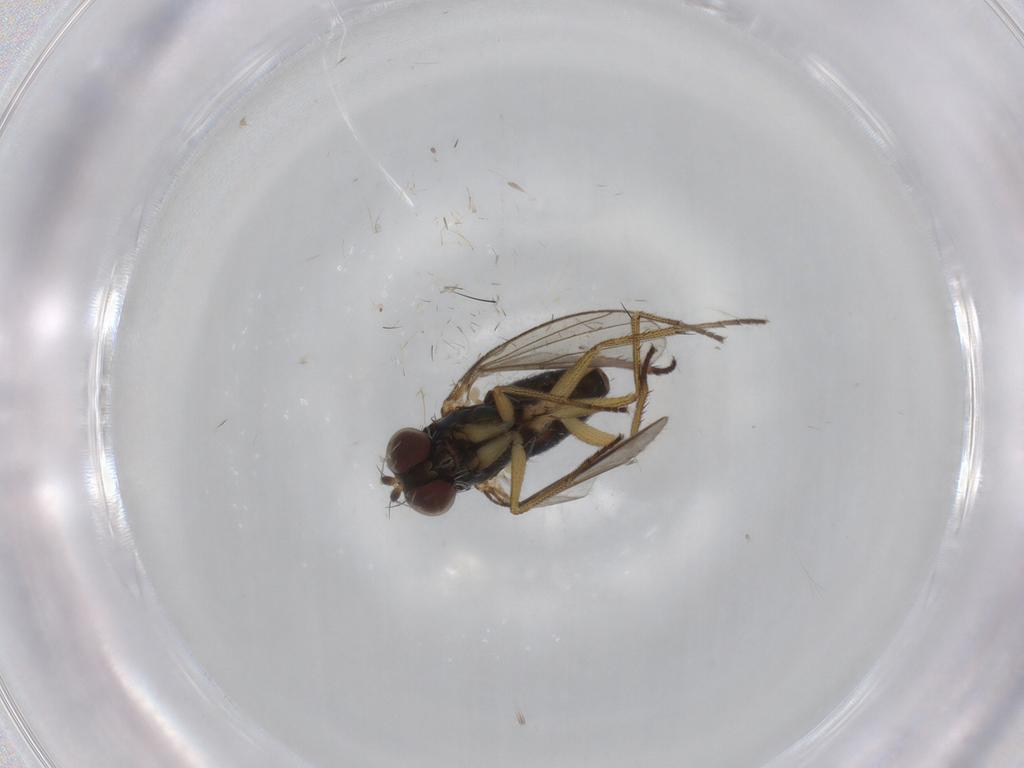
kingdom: Animalia
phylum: Arthropoda
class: Insecta
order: Diptera
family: Dolichopodidae
